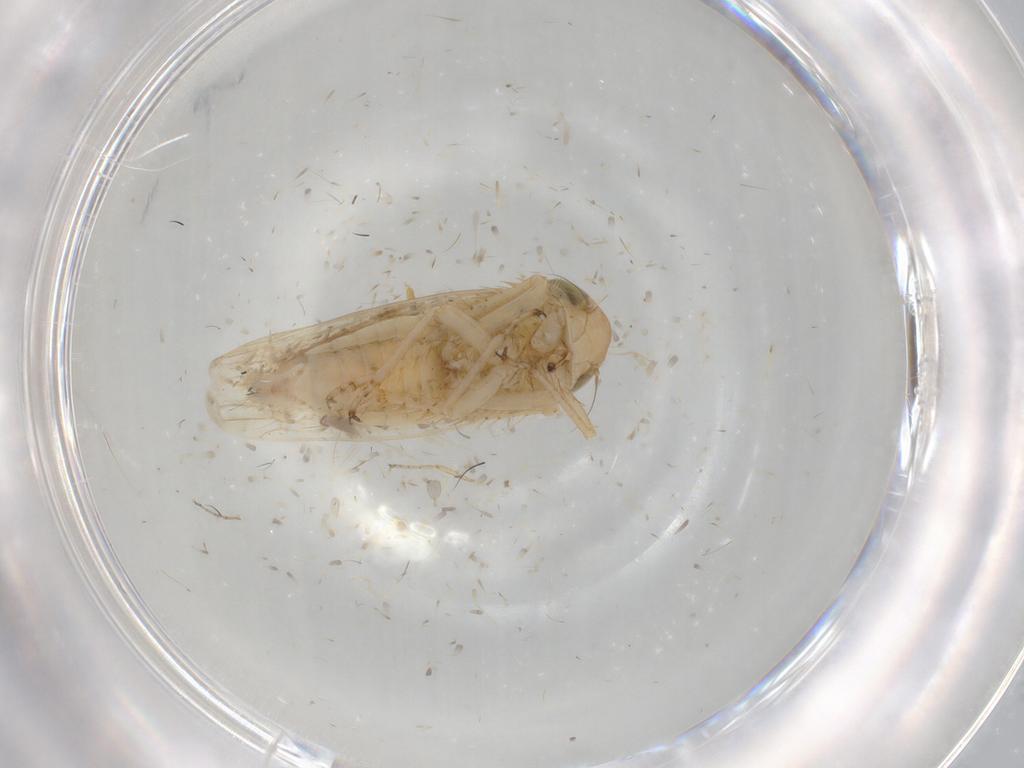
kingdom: Animalia
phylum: Arthropoda
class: Insecta
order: Hemiptera
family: Cicadellidae
